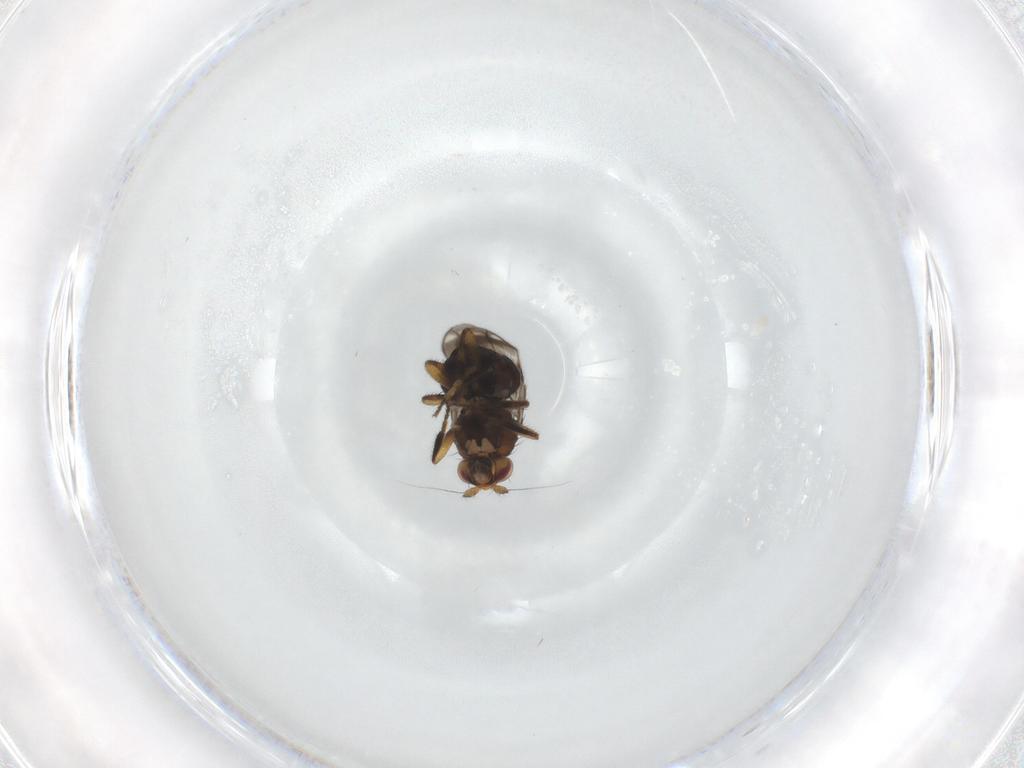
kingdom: Animalia
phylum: Arthropoda
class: Insecta
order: Diptera
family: Sphaeroceridae
